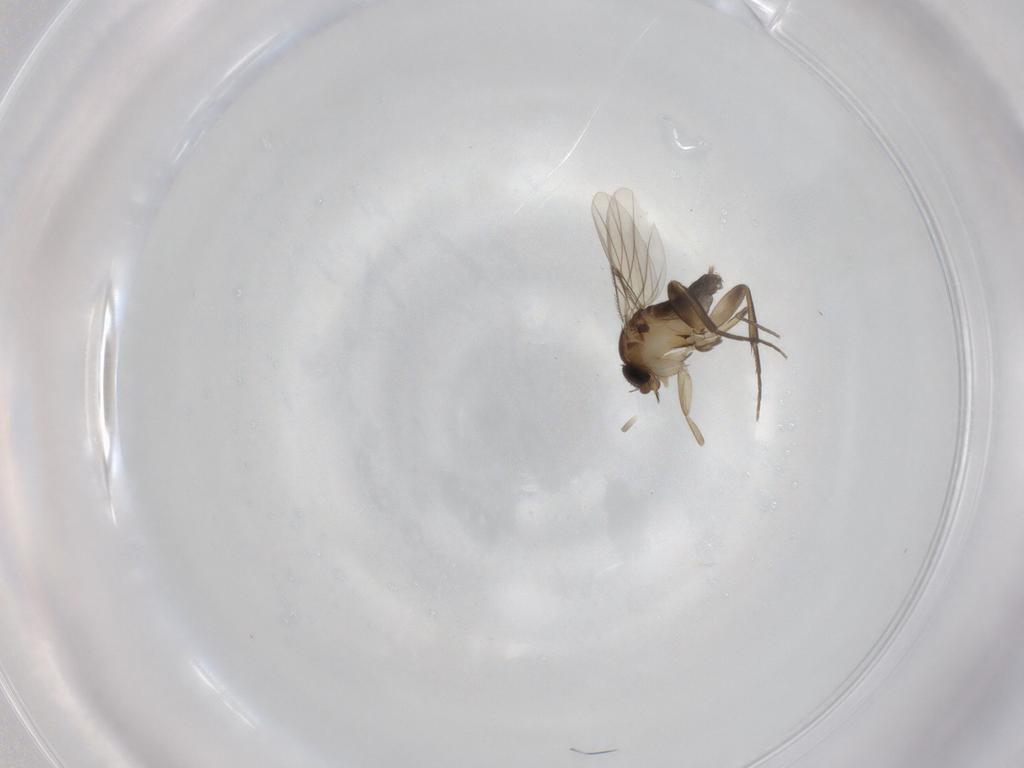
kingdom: Animalia
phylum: Arthropoda
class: Insecta
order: Diptera
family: Phoridae
